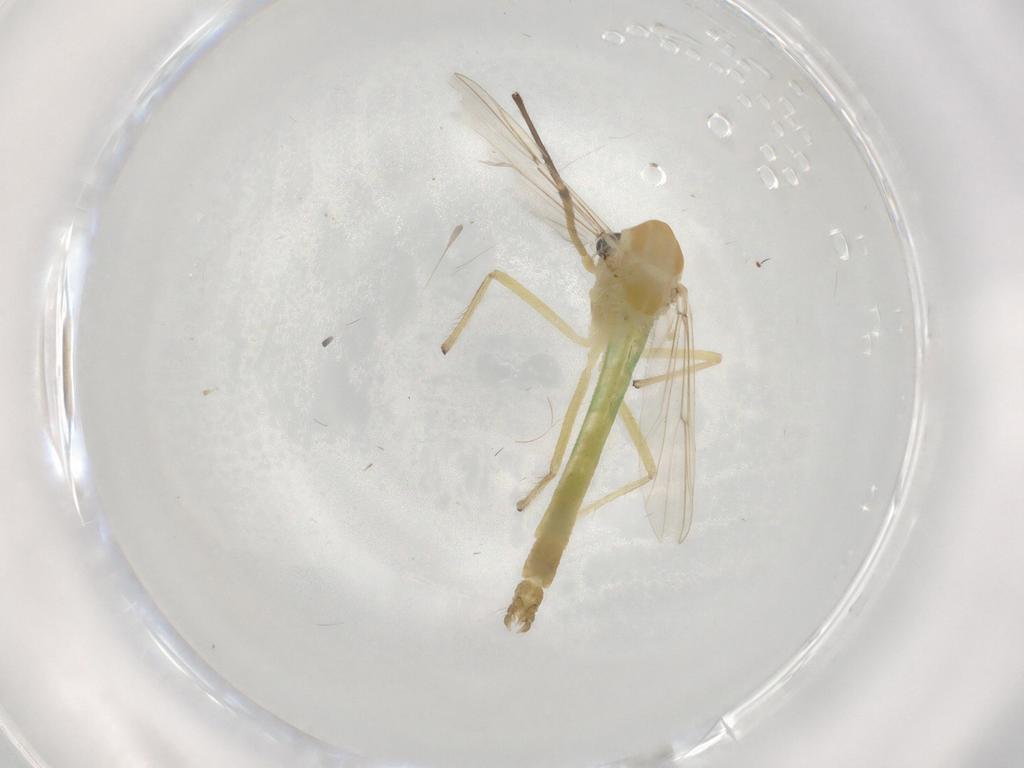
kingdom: Animalia
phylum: Arthropoda
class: Insecta
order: Diptera
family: Chironomidae
